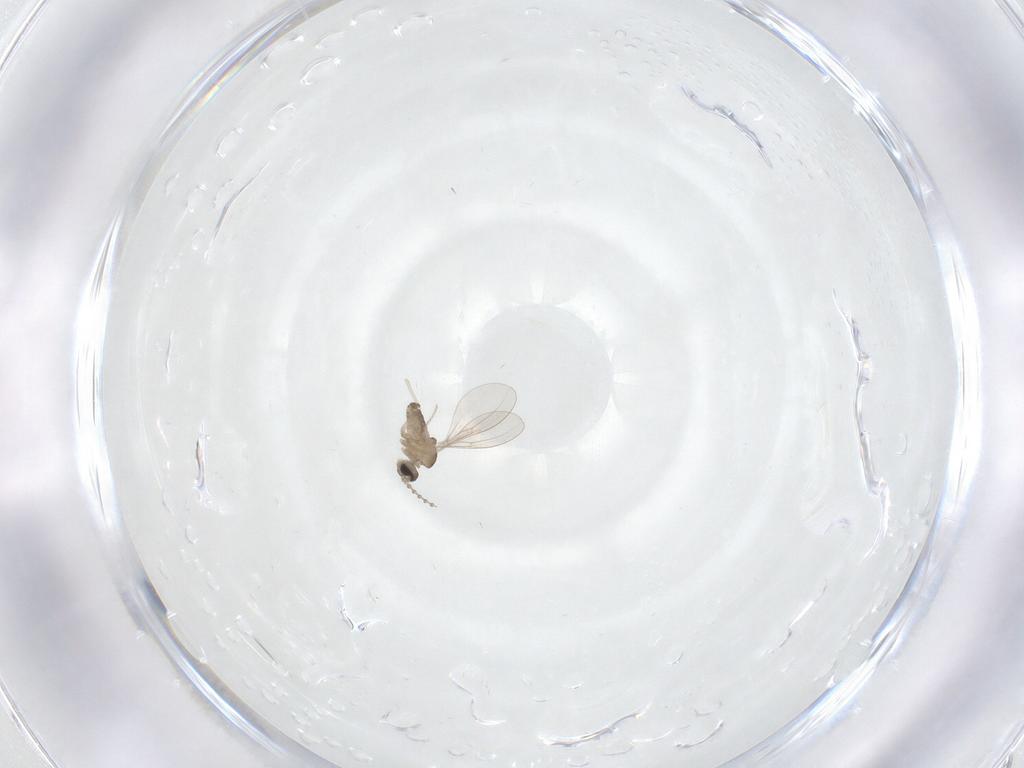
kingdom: Animalia
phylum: Arthropoda
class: Insecta
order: Diptera
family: Cecidomyiidae
